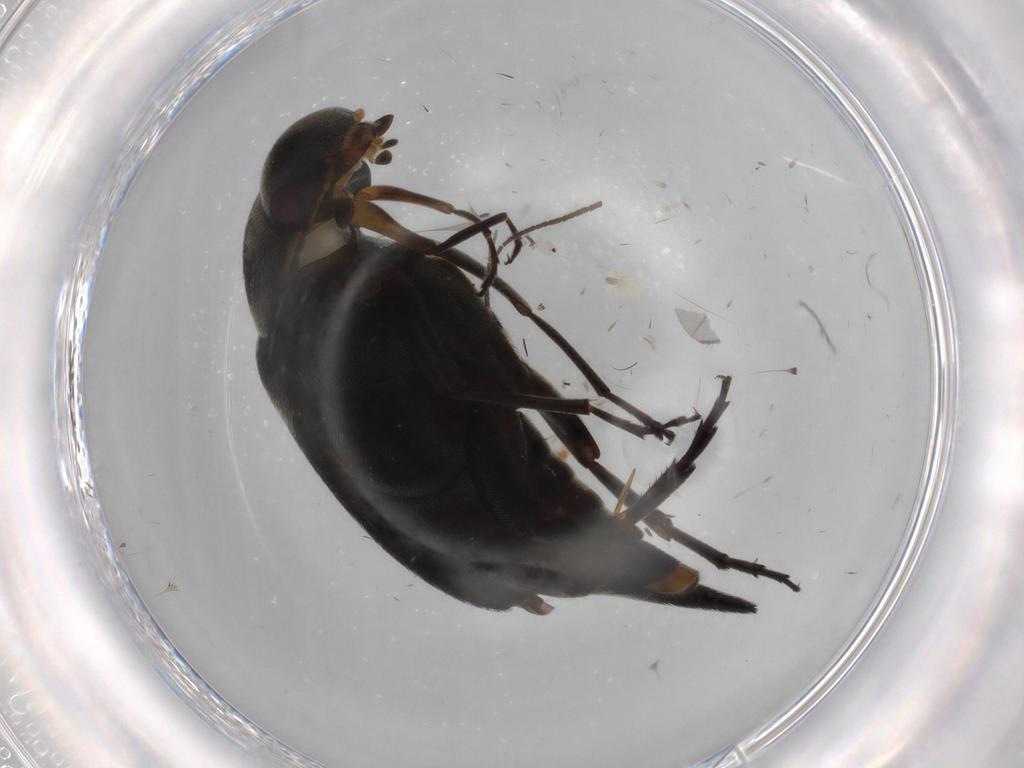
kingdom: Animalia
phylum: Arthropoda
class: Insecta
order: Coleoptera
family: Mordellidae
